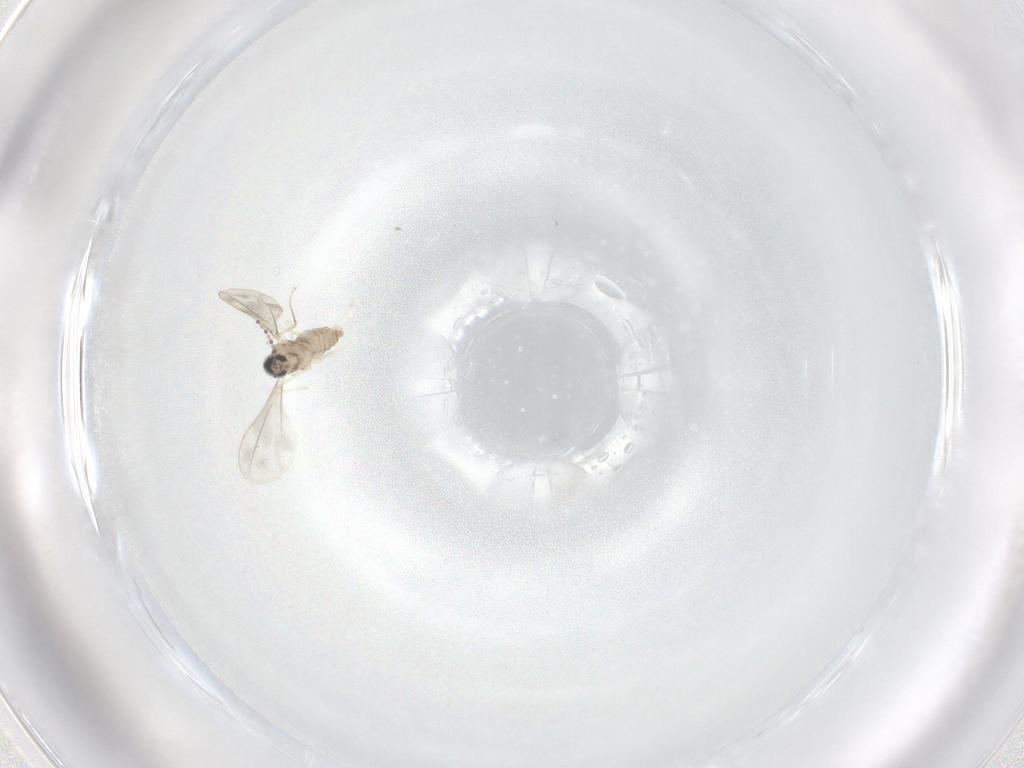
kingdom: Animalia
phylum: Arthropoda
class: Insecta
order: Diptera
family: Cecidomyiidae
